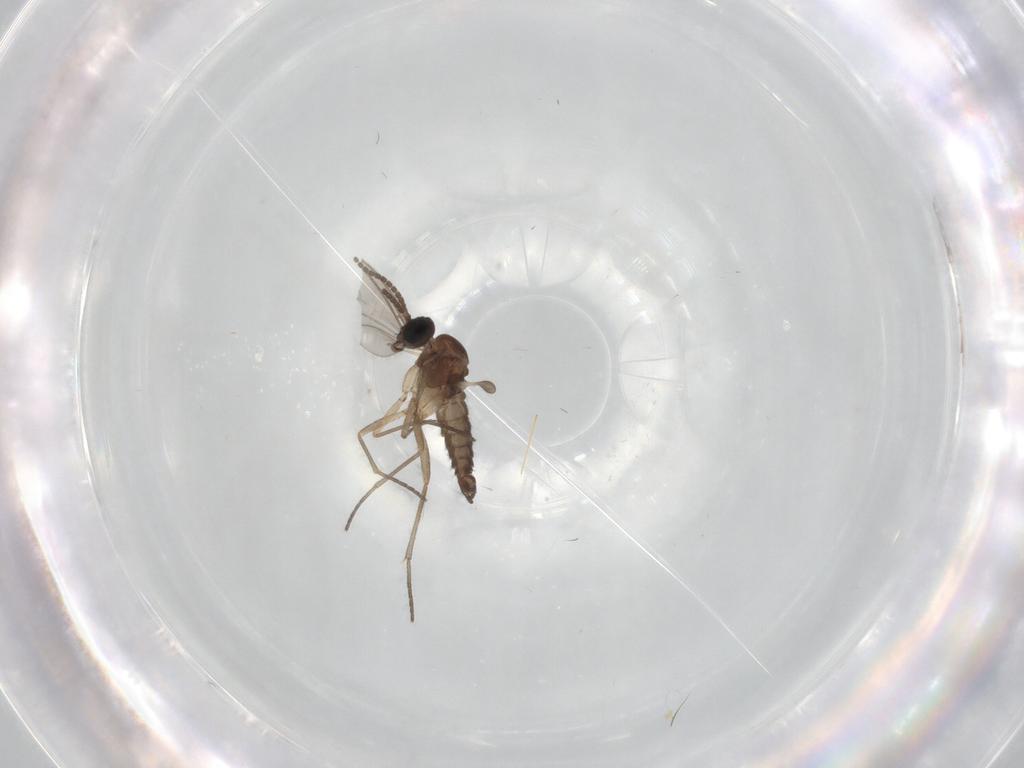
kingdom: Animalia
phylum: Arthropoda
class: Insecta
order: Diptera
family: Sciaridae
